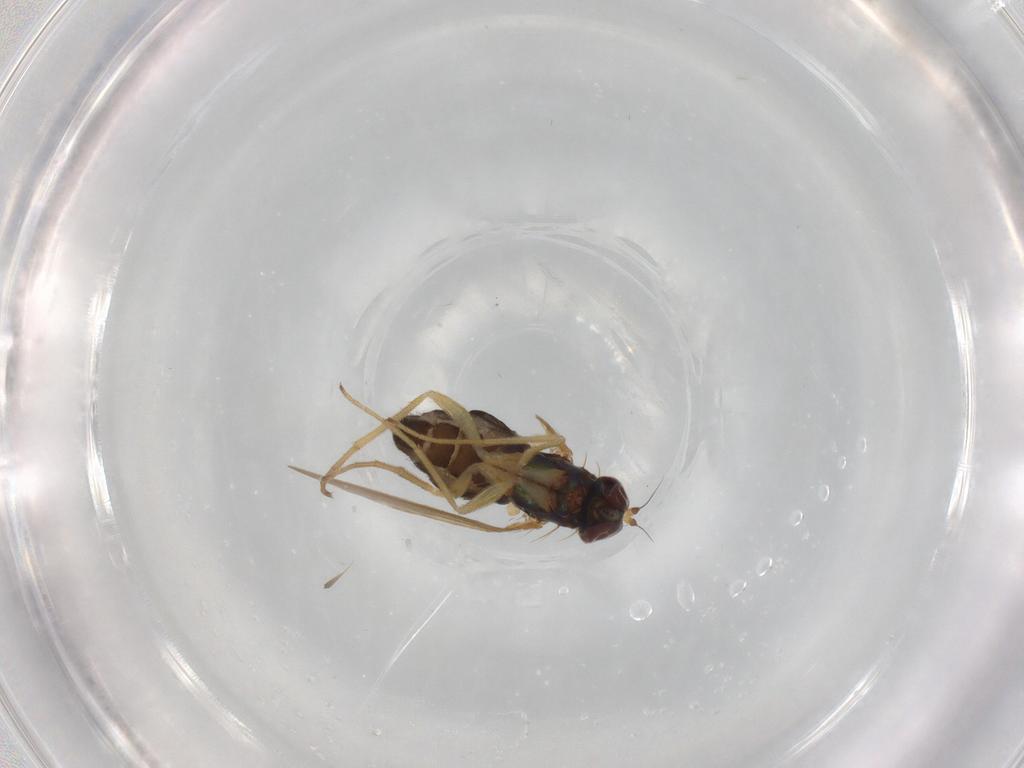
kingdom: Animalia
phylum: Arthropoda
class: Insecta
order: Diptera
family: Dolichopodidae
